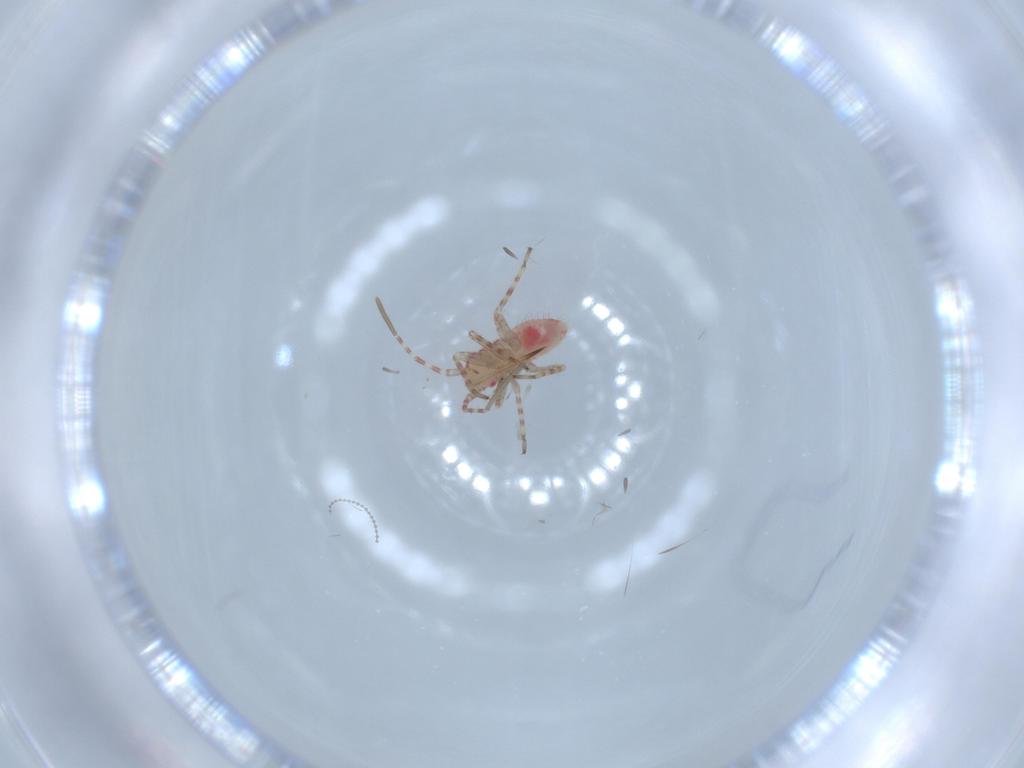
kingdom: Animalia
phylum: Arthropoda
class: Insecta
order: Hemiptera
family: Miridae
